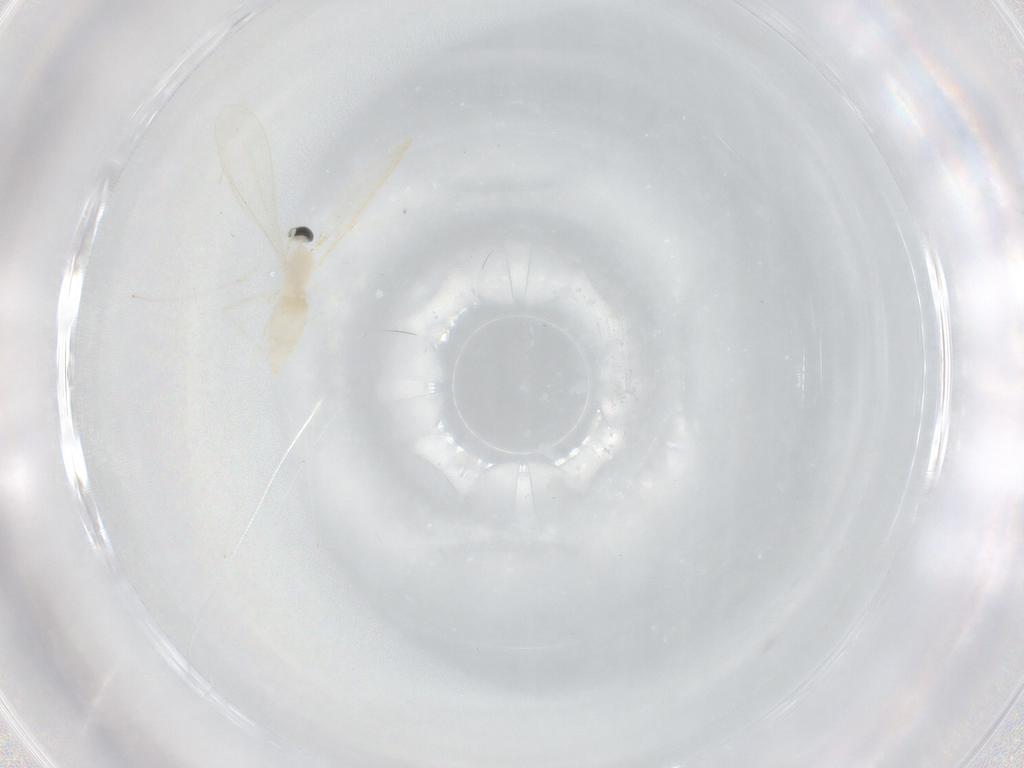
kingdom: Animalia
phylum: Arthropoda
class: Insecta
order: Diptera
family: Cecidomyiidae
